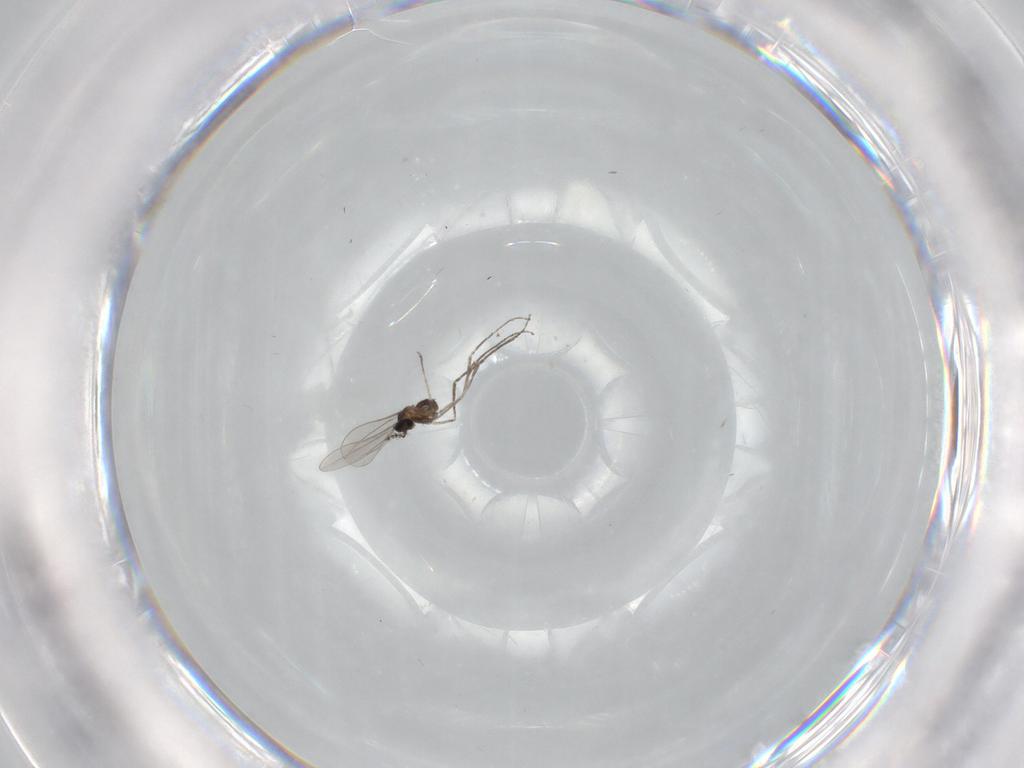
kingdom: Animalia
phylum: Arthropoda
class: Insecta
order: Diptera
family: Cecidomyiidae
